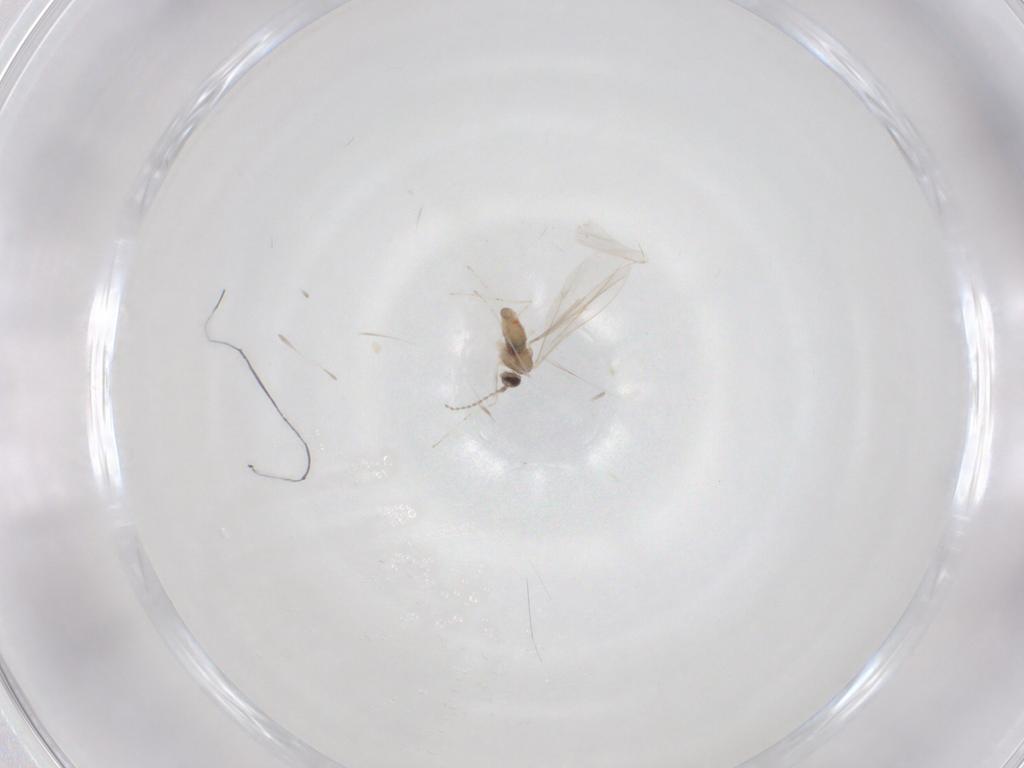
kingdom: Animalia
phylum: Arthropoda
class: Insecta
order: Diptera
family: Cecidomyiidae
